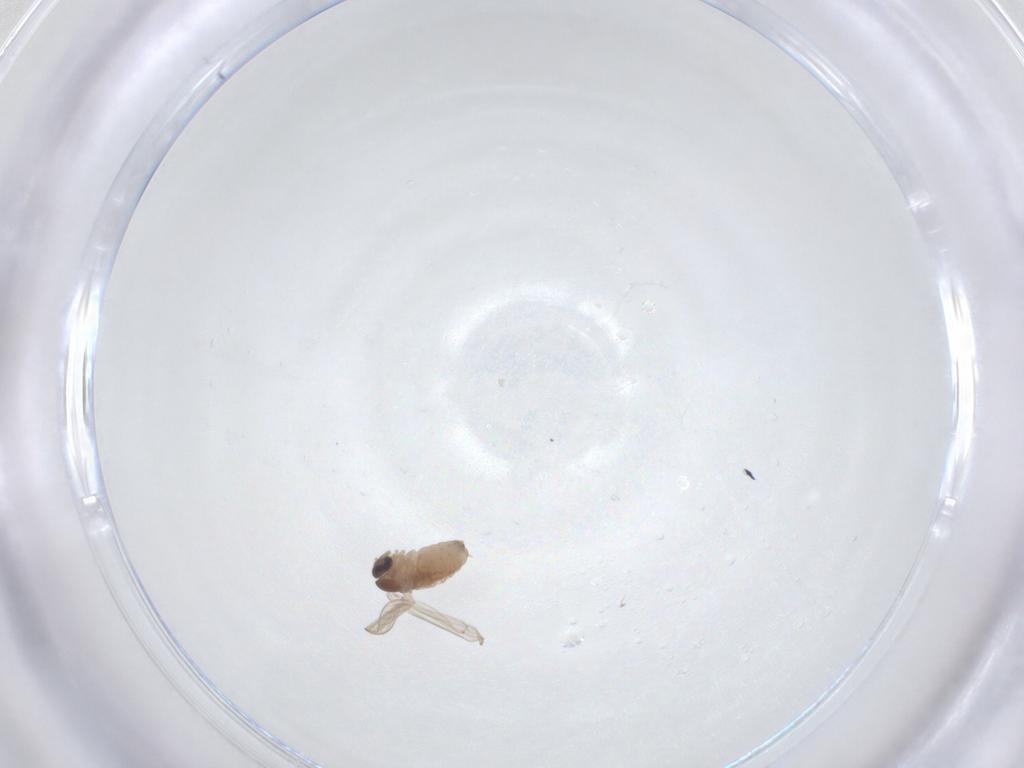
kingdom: Animalia
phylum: Arthropoda
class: Insecta
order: Diptera
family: Psychodidae
